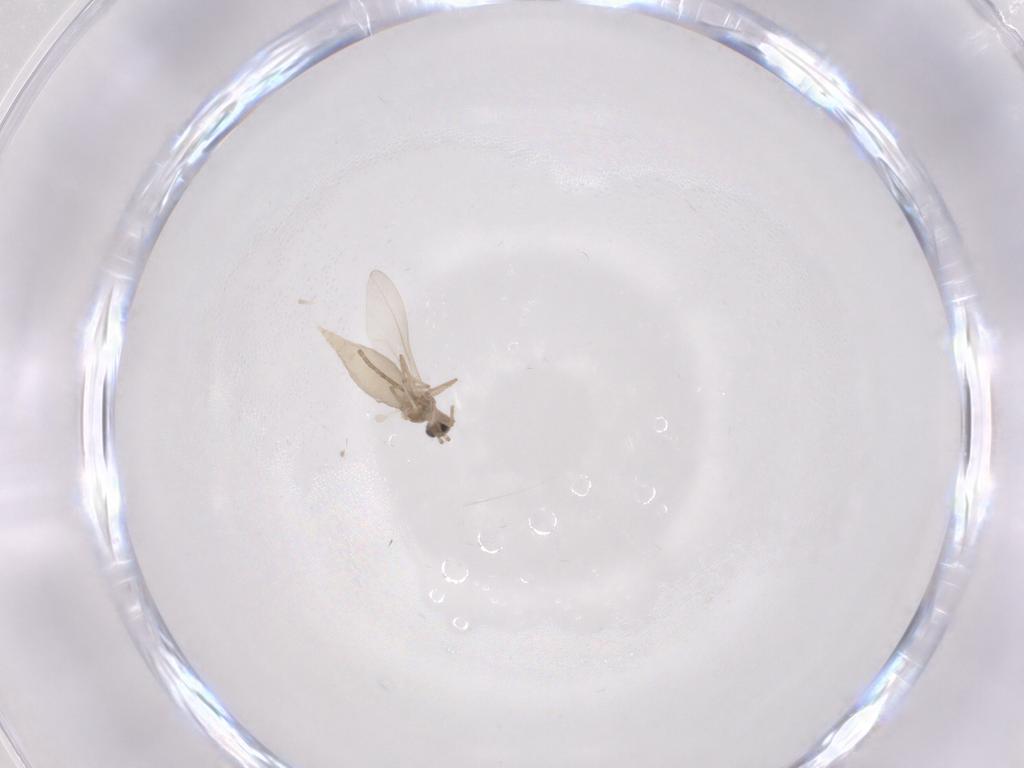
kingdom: Animalia
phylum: Arthropoda
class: Insecta
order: Diptera
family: Cecidomyiidae
